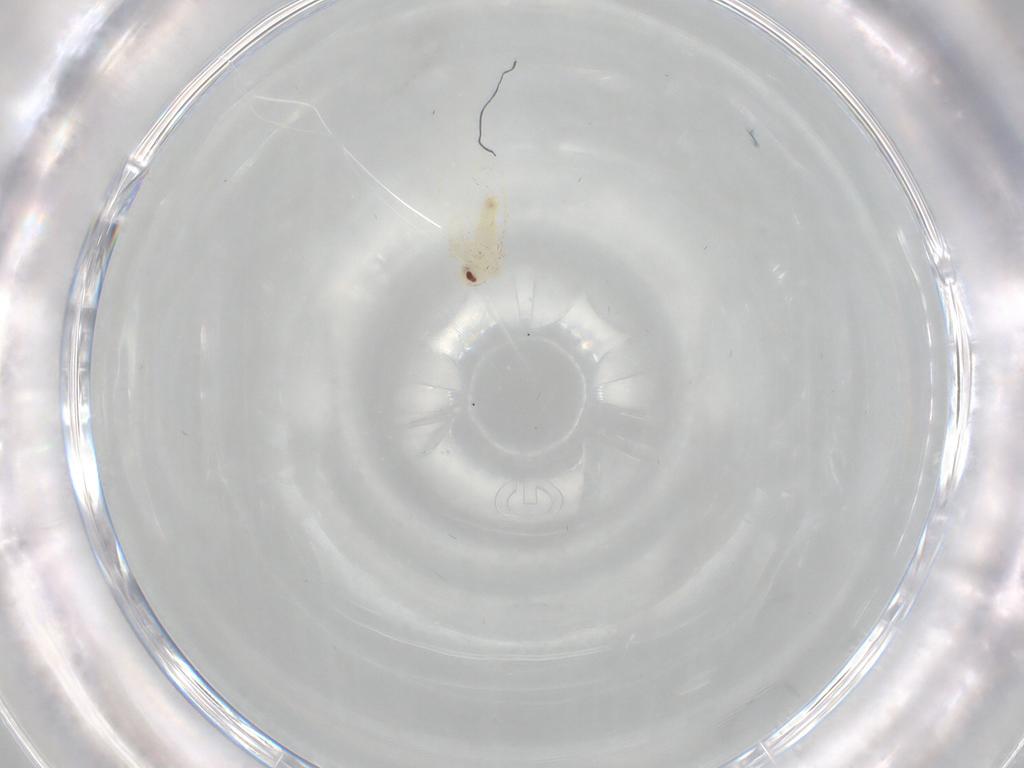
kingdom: Animalia
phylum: Arthropoda
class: Insecta
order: Hemiptera
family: Aleyrodidae
